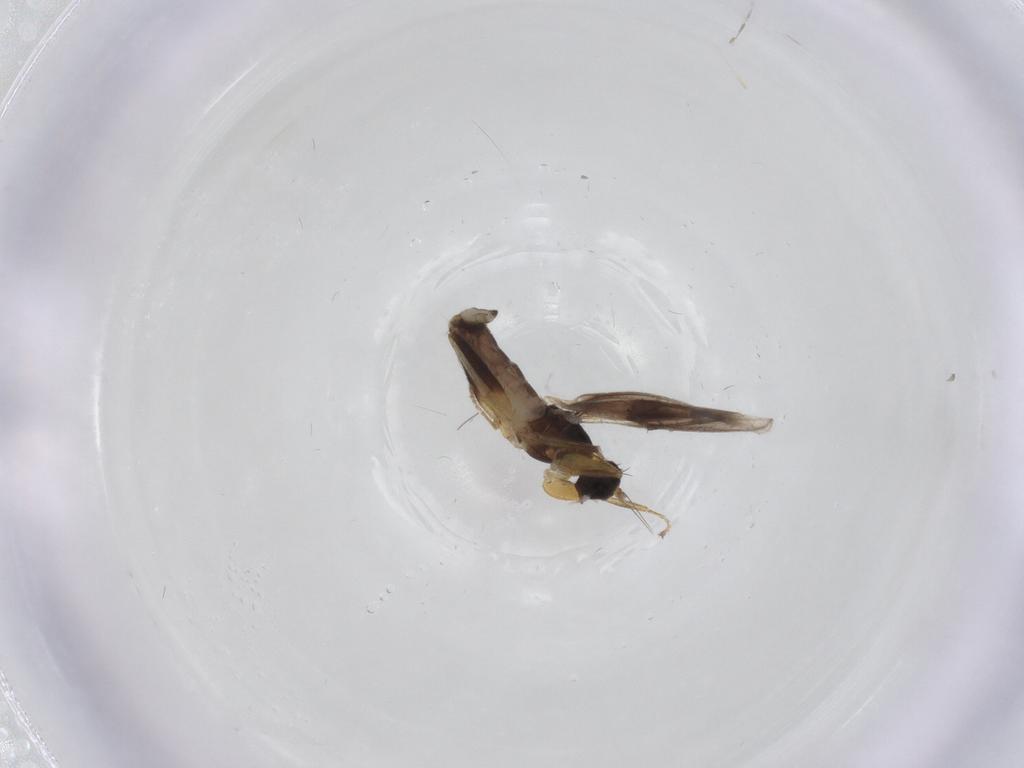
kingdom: Animalia
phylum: Arthropoda
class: Insecta
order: Diptera
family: Hybotidae
